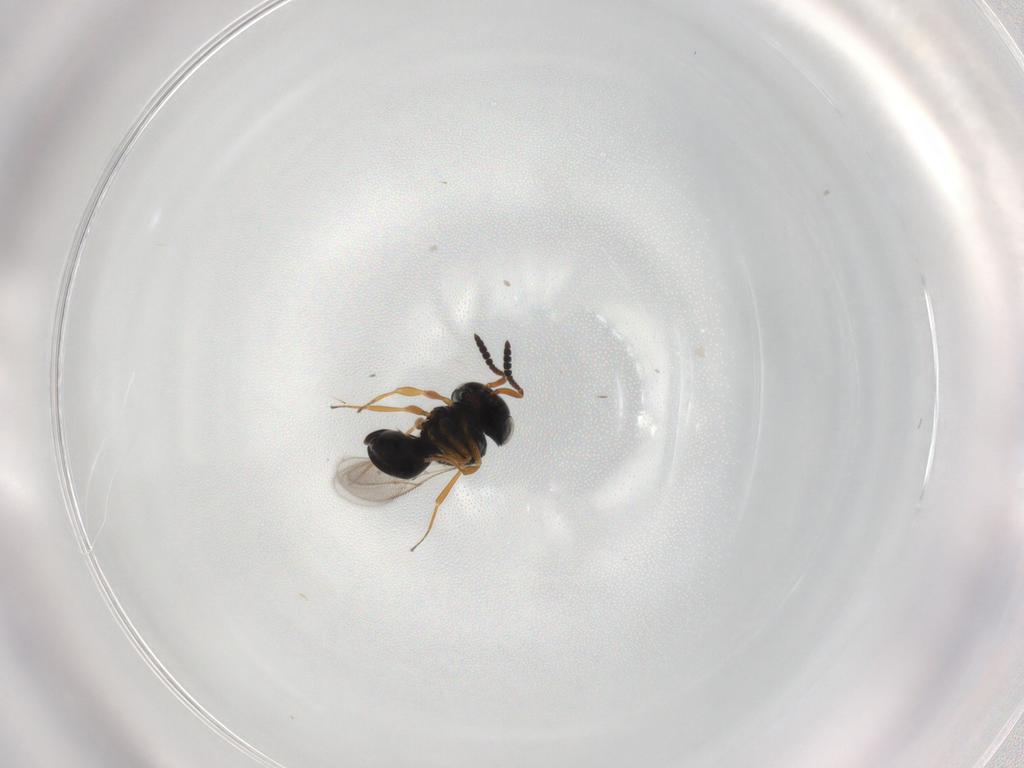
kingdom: Animalia
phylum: Arthropoda
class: Insecta
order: Hymenoptera
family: Scelionidae
